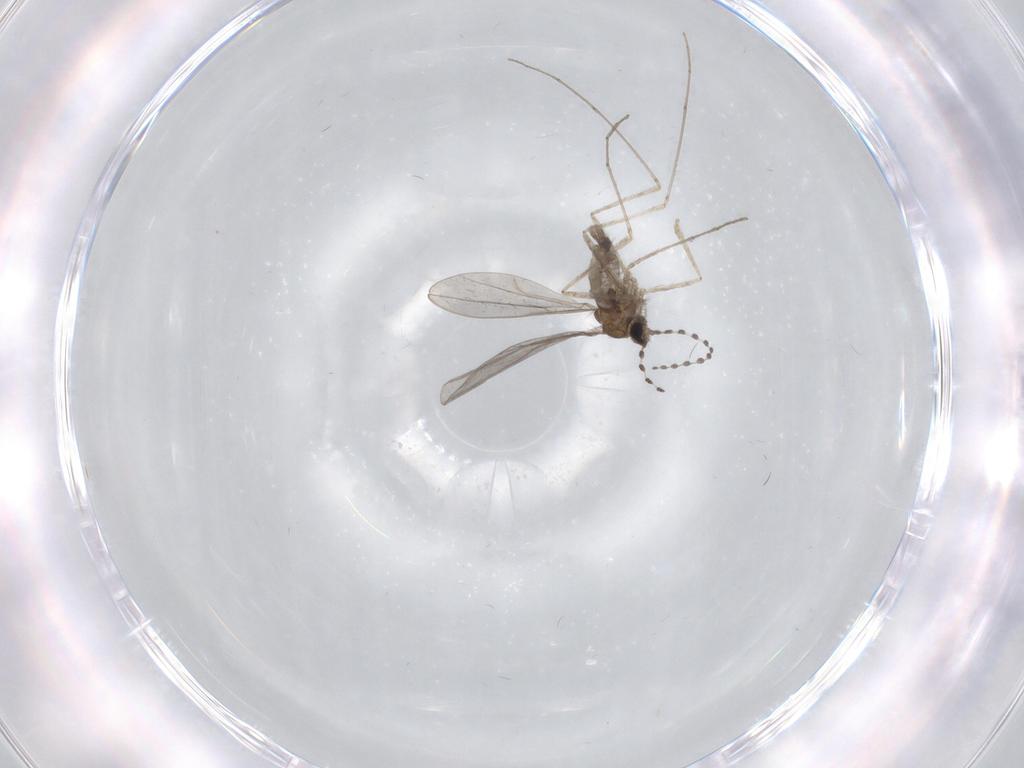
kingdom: Animalia
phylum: Arthropoda
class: Insecta
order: Diptera
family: Cecidomyiidae
